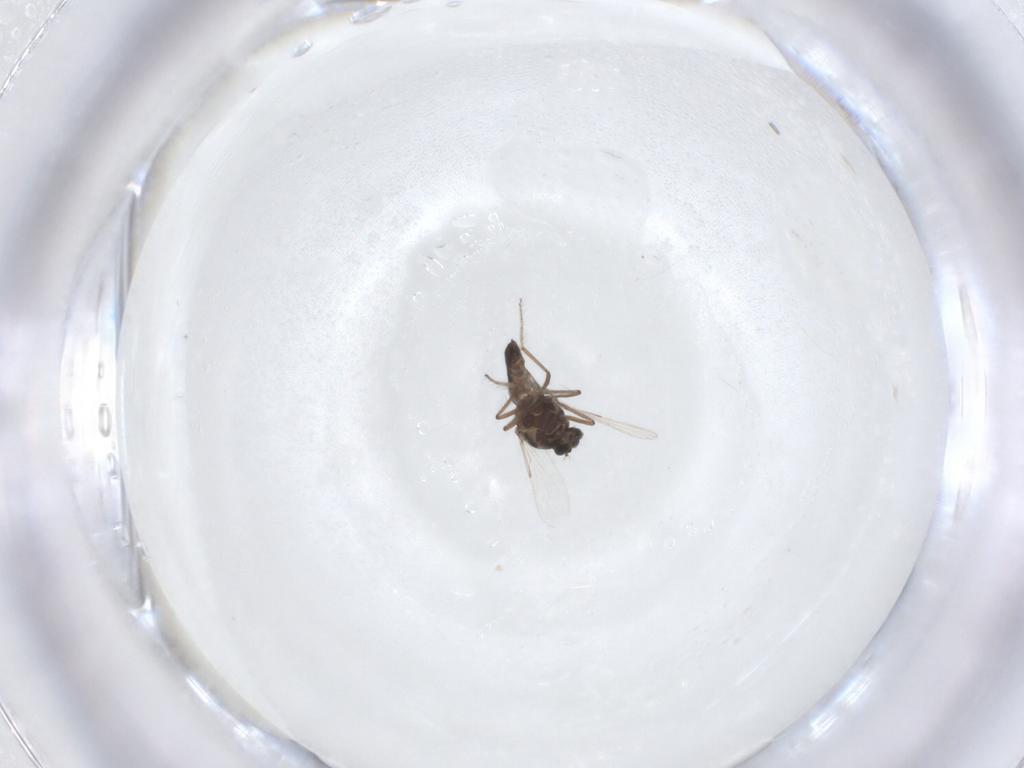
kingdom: Animalia
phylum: Arthropoda
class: Insecta
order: Diptera
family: Ceratopogonidae
